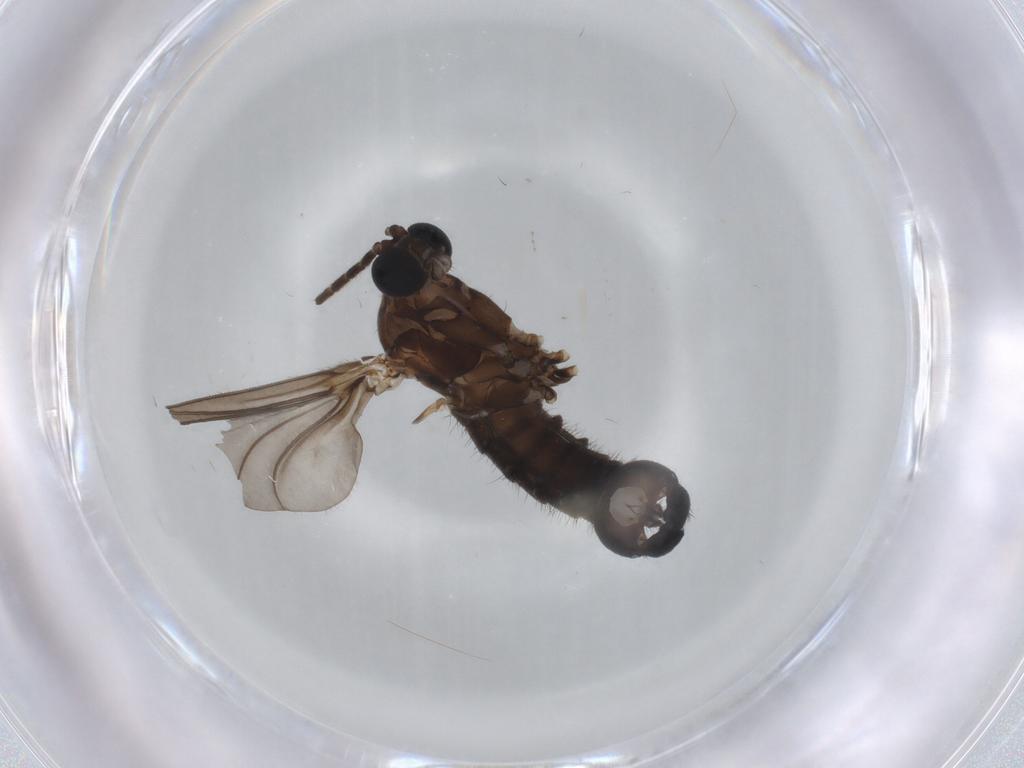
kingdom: Animalia
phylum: Arthropoda
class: Insecta
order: Diptera
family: Sciaridae
